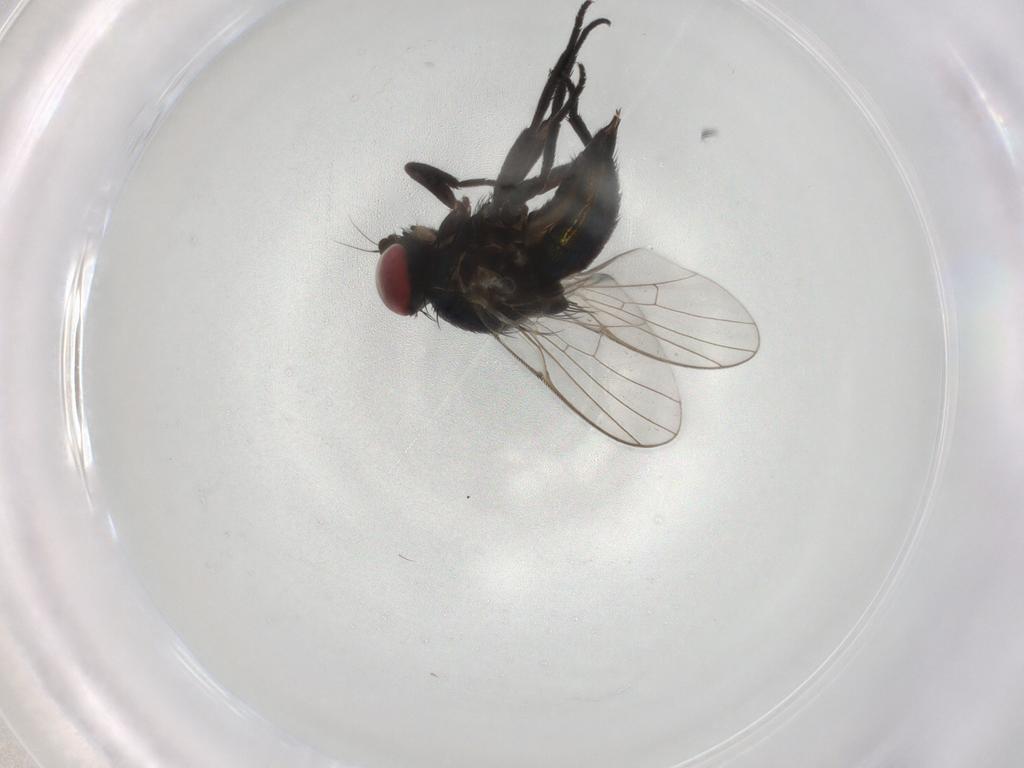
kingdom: Animalia
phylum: Arthropoda
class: Insecta
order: Diptera
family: Agromyzidae
